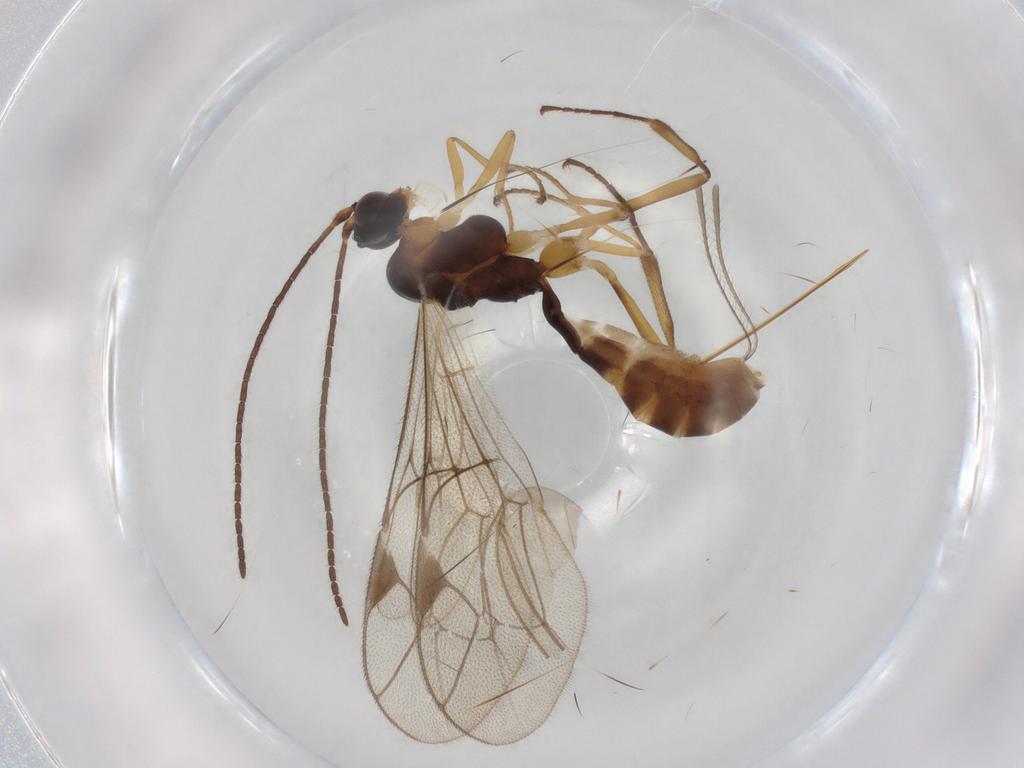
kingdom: Animalia
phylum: Arthropoda
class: Insecta
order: Hymenoptera
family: Ichneumonidae
